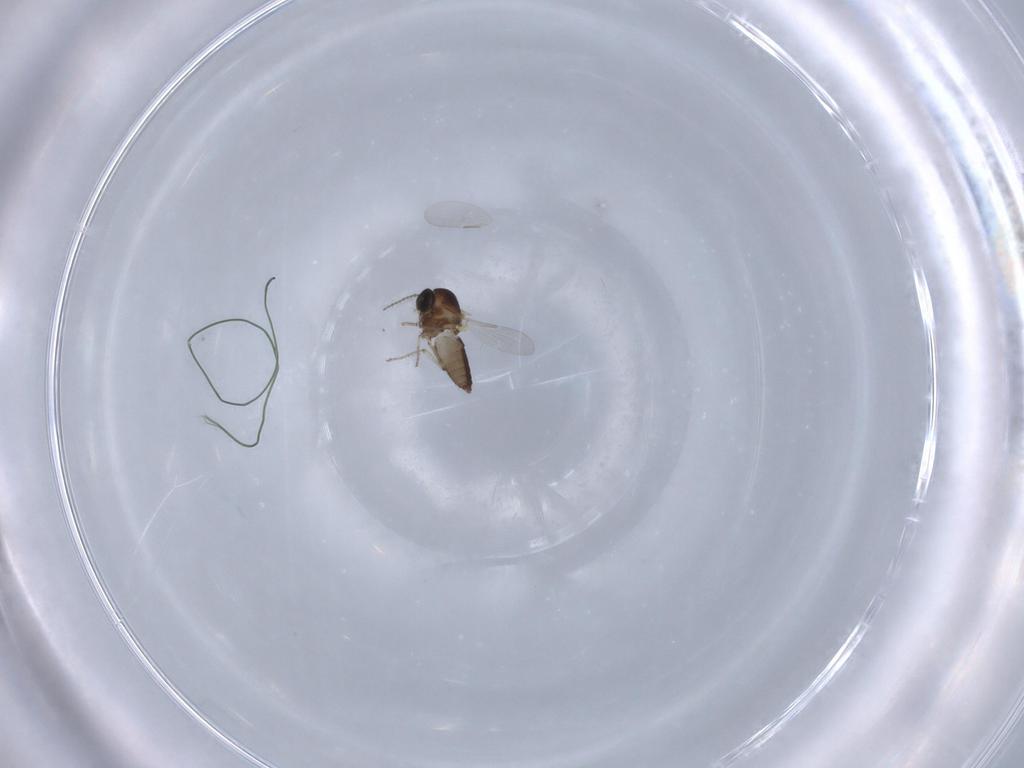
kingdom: Animalia
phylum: Arthropoda
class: Insecta
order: Diptera
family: Ceratopogonidae
